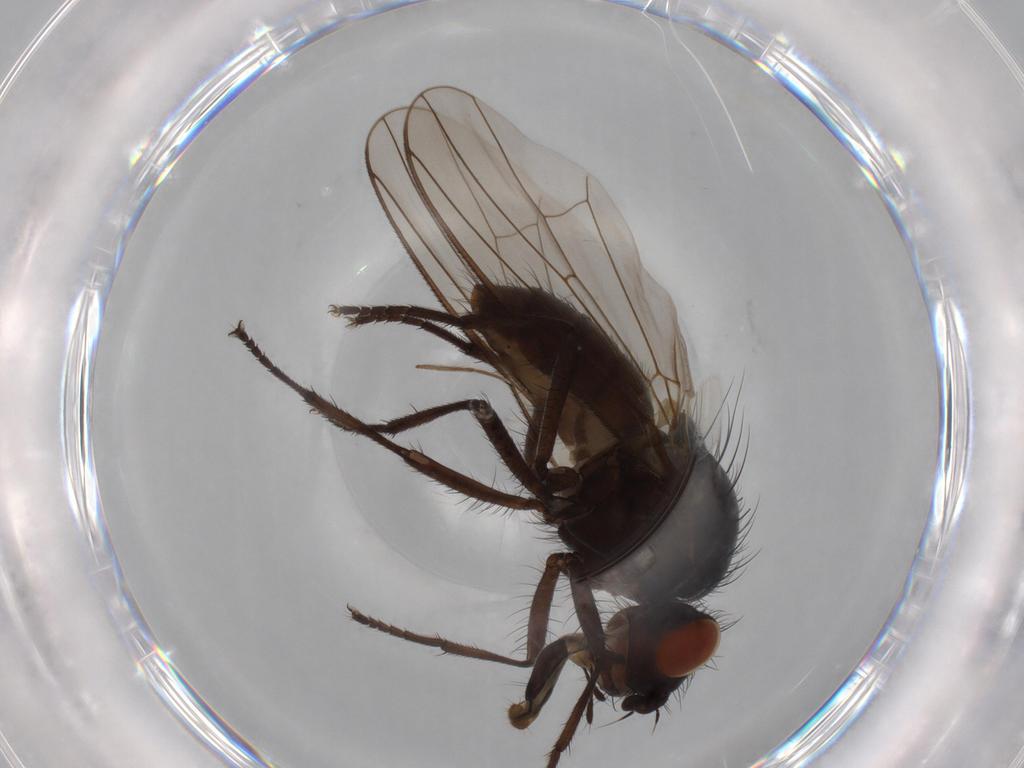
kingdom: Animalia
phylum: Arthropoda
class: Insecta
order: Diptera
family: Anthomyiidae
